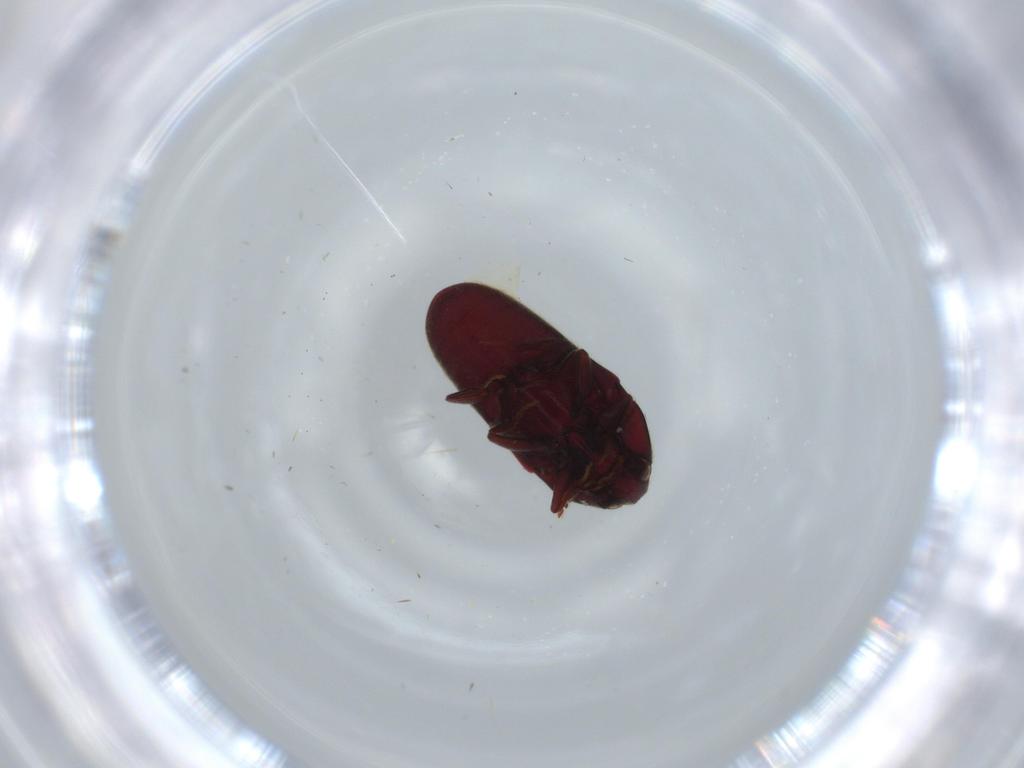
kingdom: Animalia
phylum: Arthropoda
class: Insecta
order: Coleoptera
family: Throscidae
